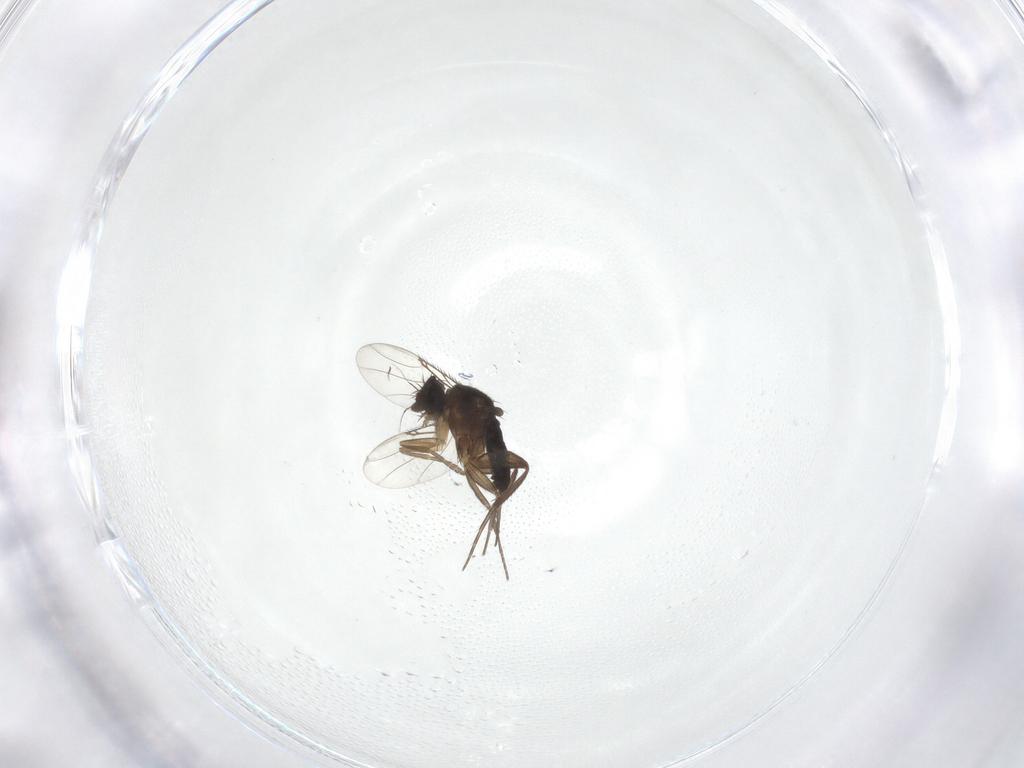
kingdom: Animalia
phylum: Arthropoda
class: Insecta
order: Diptera
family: Phoridae
